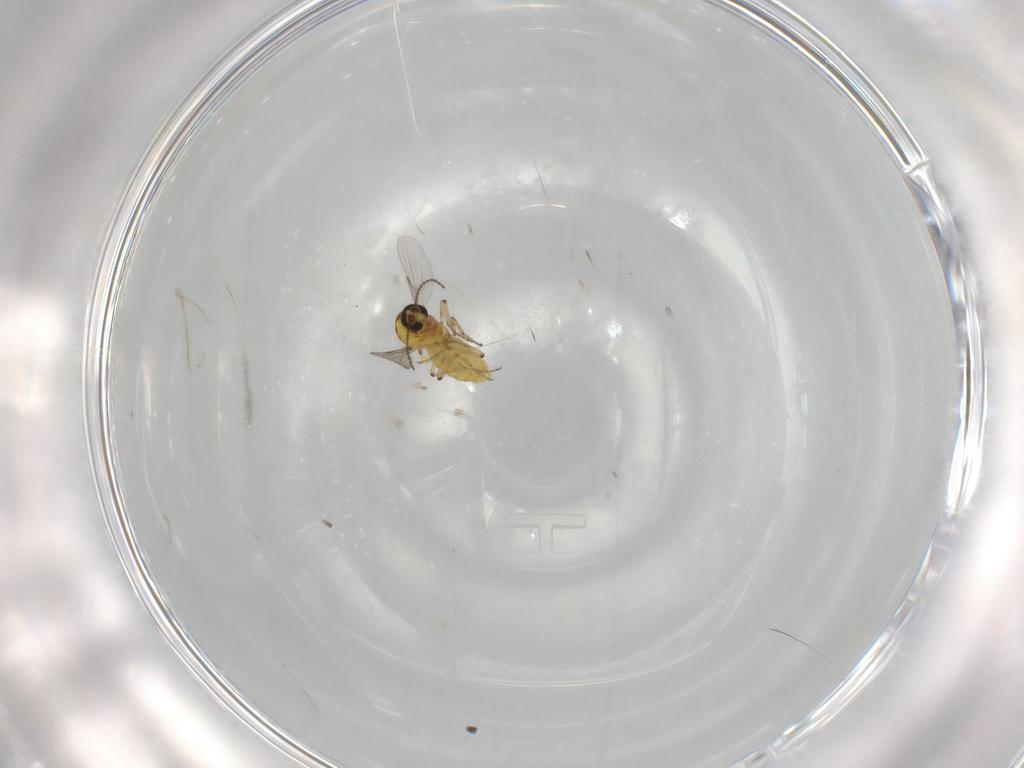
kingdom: Animalia
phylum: Arthropoda
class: Insecta
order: Diptera
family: Ceratopogonidae
